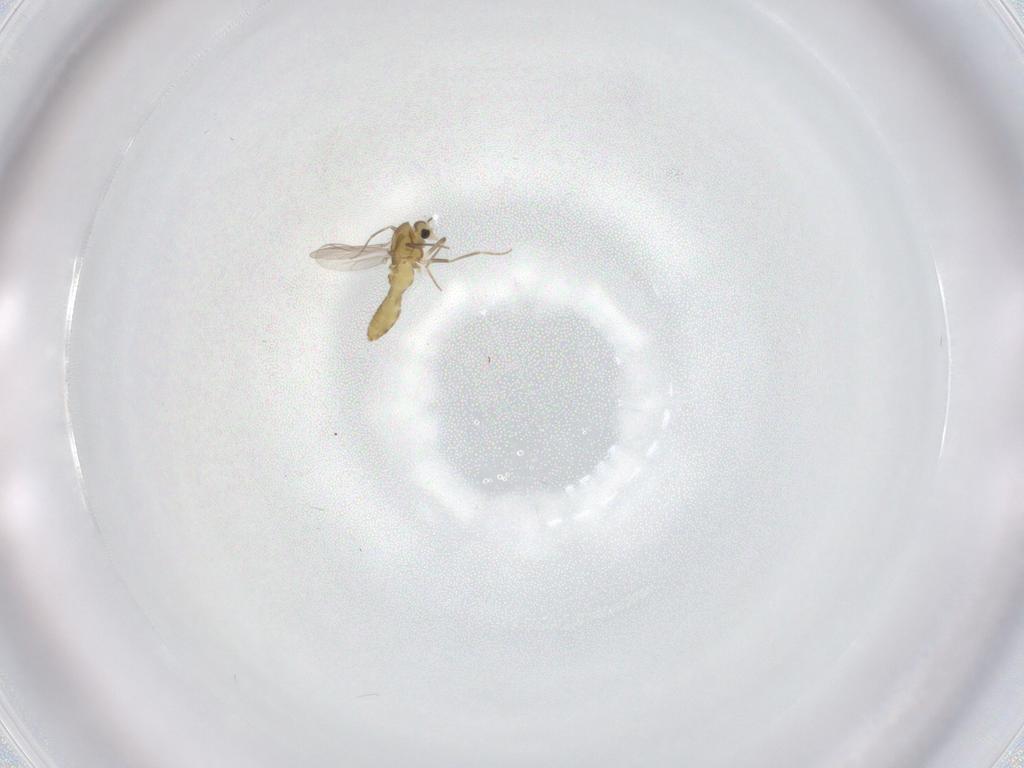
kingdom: Animalia
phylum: Arthropoda
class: Insecta
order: Diptera
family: Chironomidae
